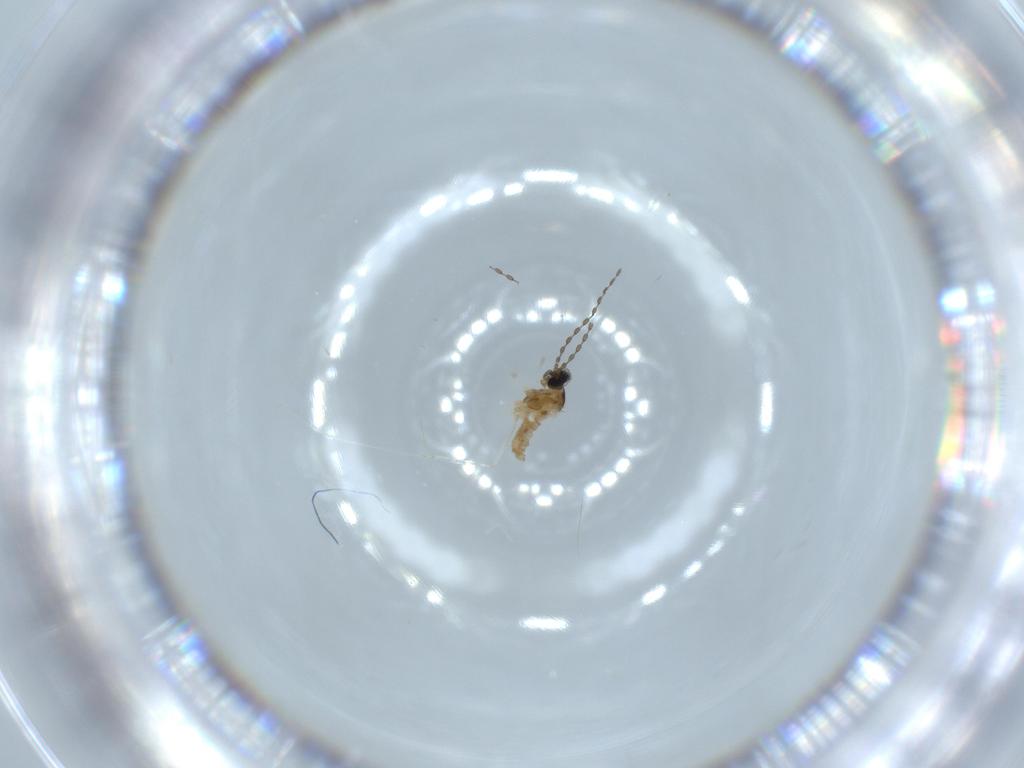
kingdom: Animalia
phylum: Arthropoda
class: Insecta
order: Diptera
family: Cecidomyiidae
